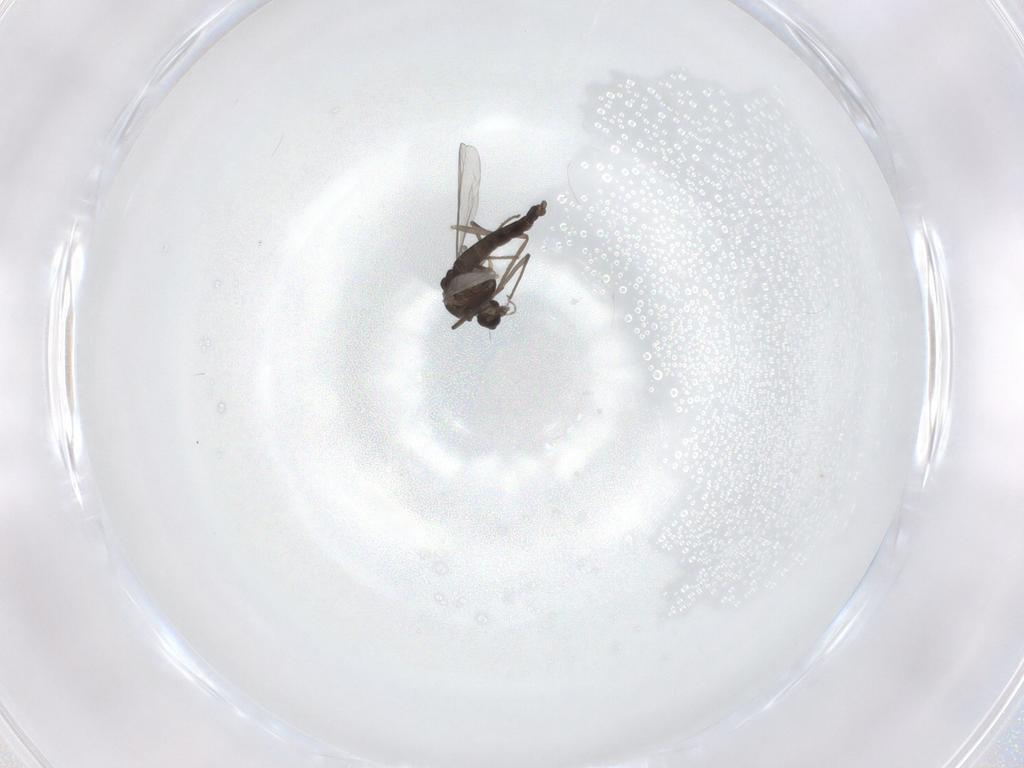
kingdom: Animalia
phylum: Arthropoda
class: Insecta
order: Diptera
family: Chironomidae
